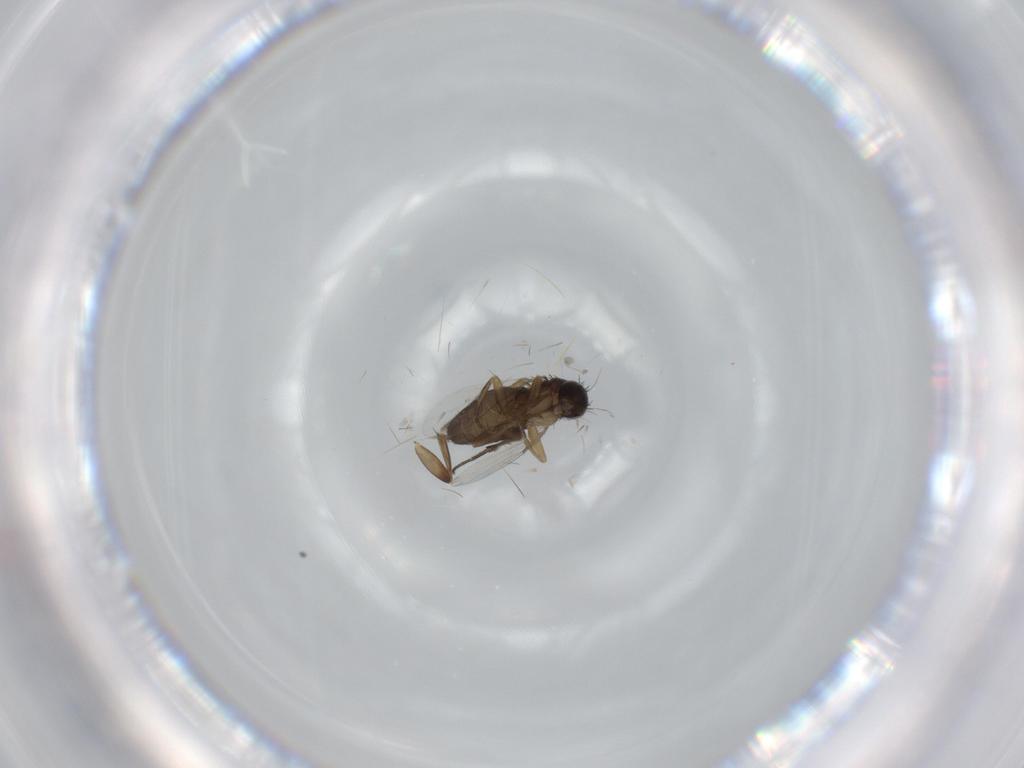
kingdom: Animalia
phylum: Arthropoda
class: Insecta
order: Diptera
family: Phoridae
